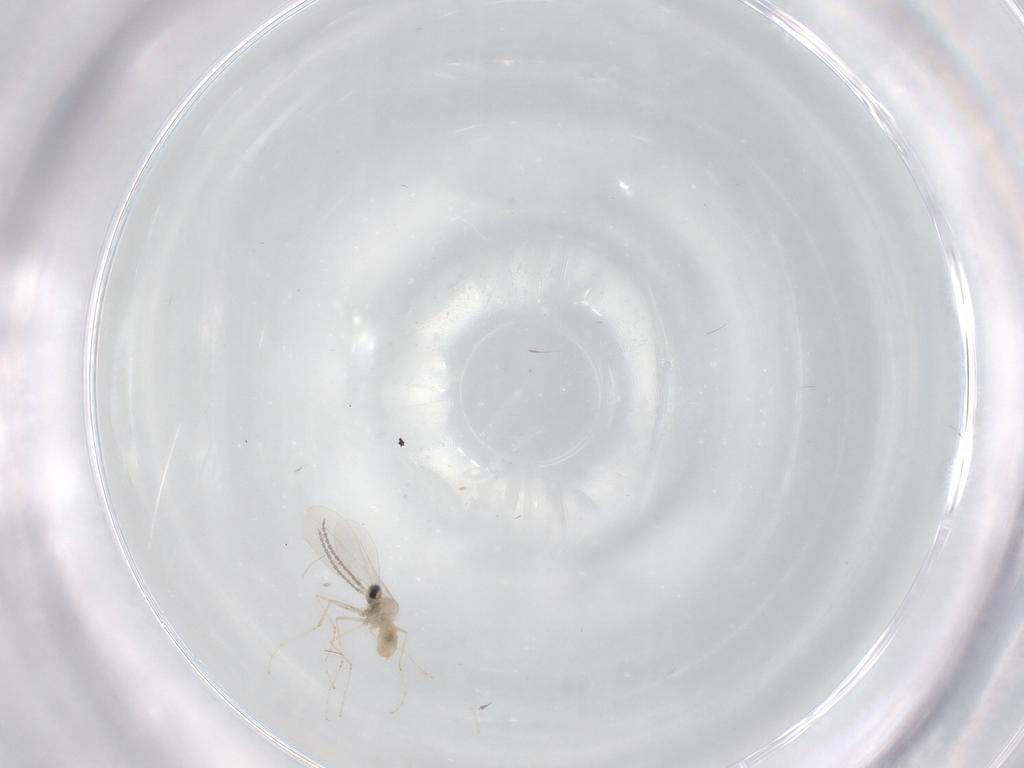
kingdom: Animalia
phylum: Arthropoda
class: Insecta
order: Diptera
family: Cecidomyiidae
